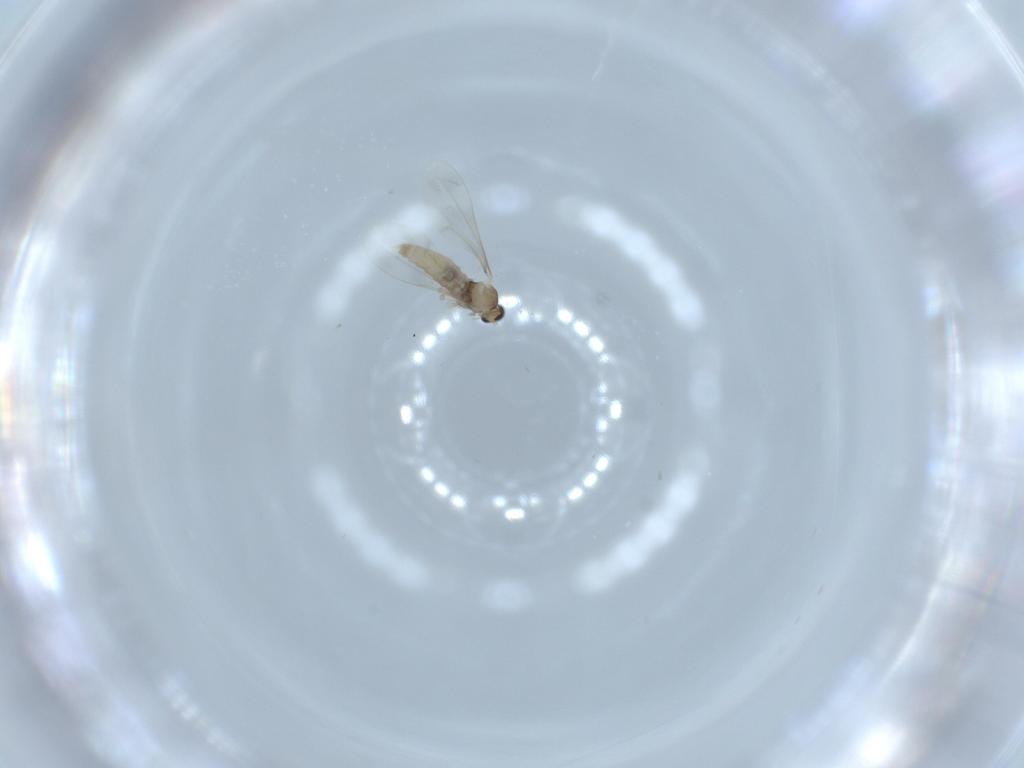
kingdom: Animalia
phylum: Arthropoda
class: Insecta
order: Diptera
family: Cecidomyiidae
